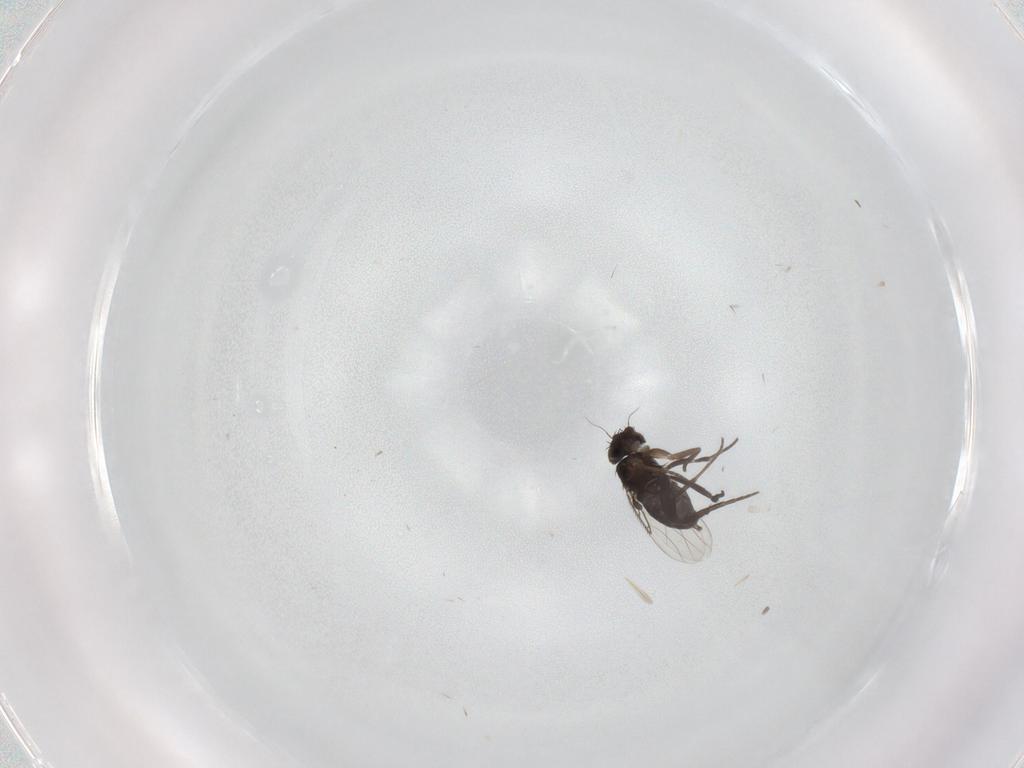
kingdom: Animalia
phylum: Arthropoda
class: Insecta
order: Diptera
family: Phoridae
